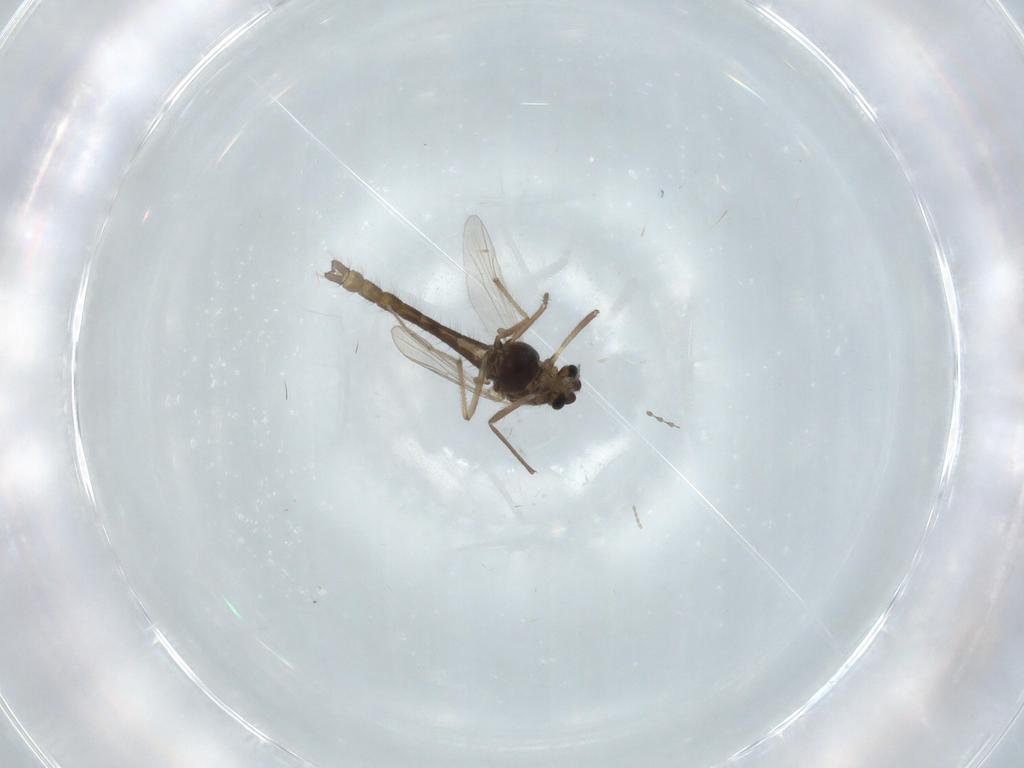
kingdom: Animalia
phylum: Arthropoda
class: Insecta
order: Diptera
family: Chironomidae
